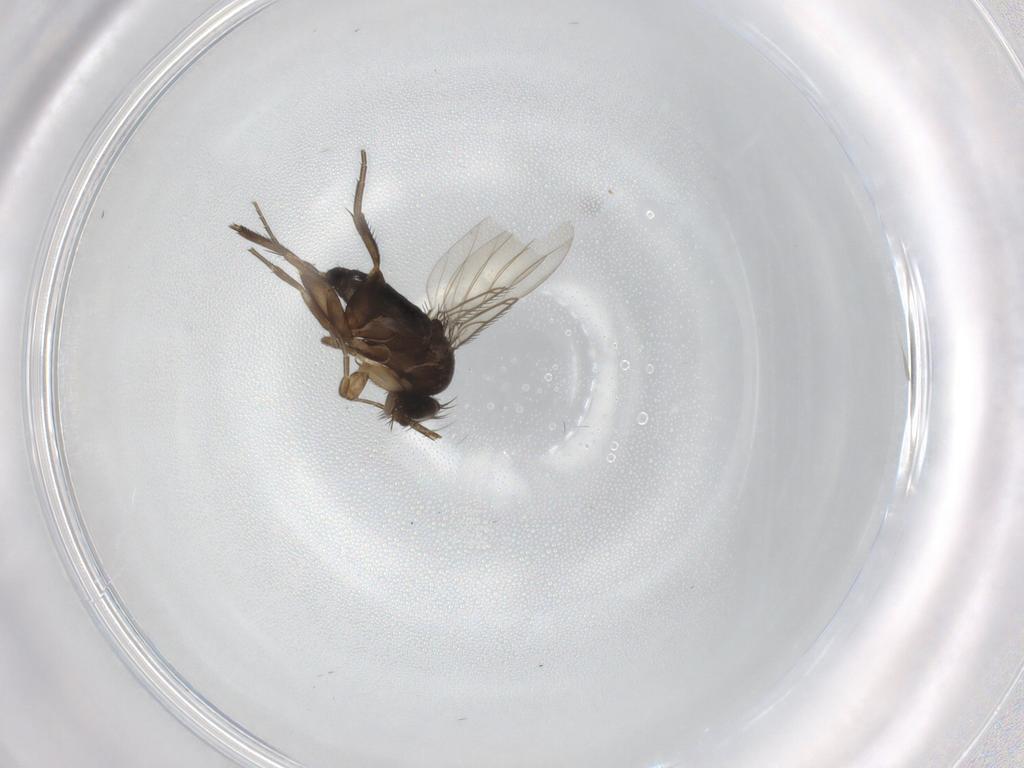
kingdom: Animalia
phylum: Arthropoda
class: Insecta
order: Diptera
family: Phoridae
